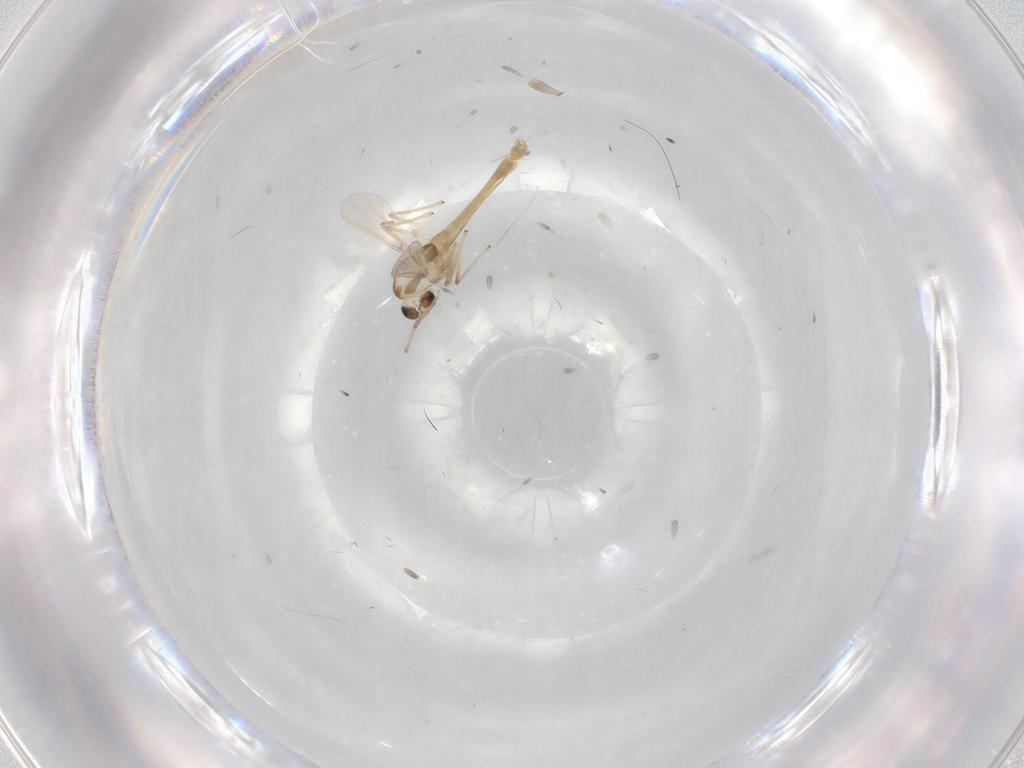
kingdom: Animalia
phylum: Arthropoda
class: Insecta
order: Diptera
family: Chironomidae
